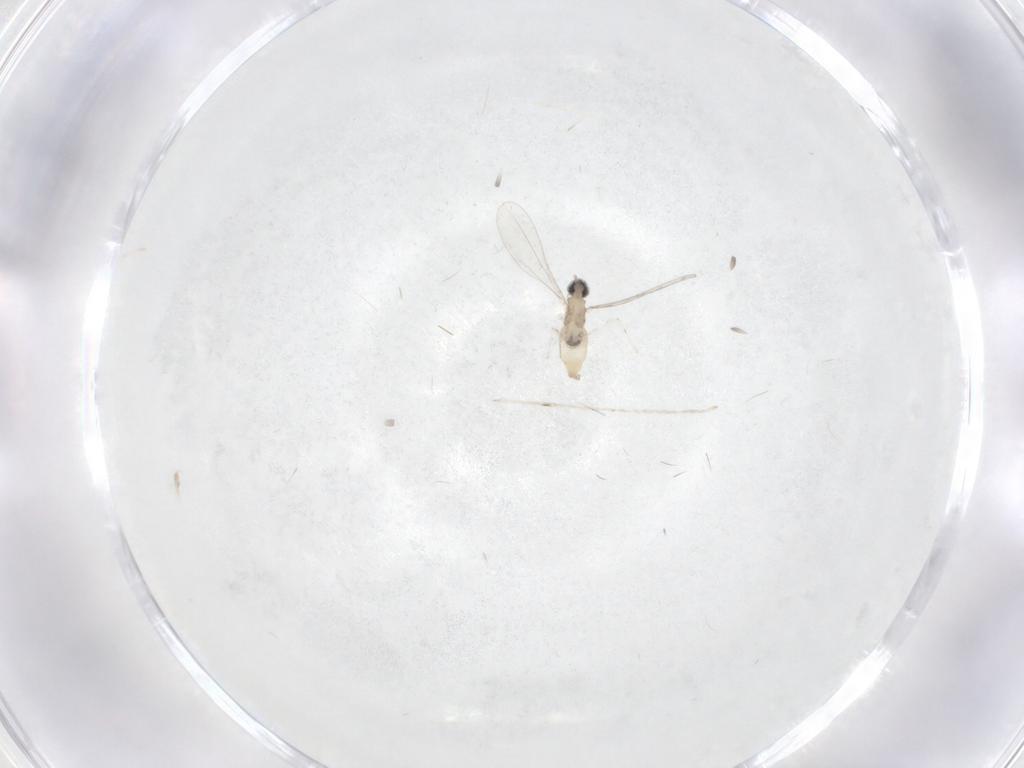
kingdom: Animalia
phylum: Arthropoda
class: Insecta
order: Diptera
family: Cecidomyiidae
